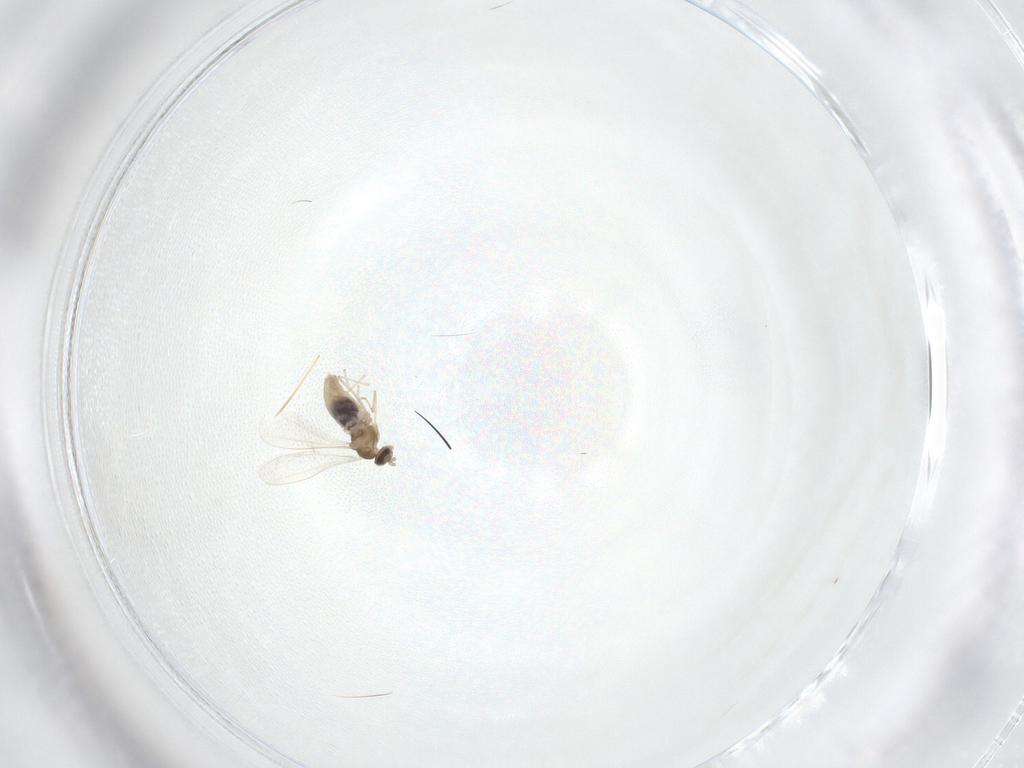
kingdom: Animalia
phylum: Arthropoda
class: Insecta
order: Diptera
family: Cecidomyiidae
